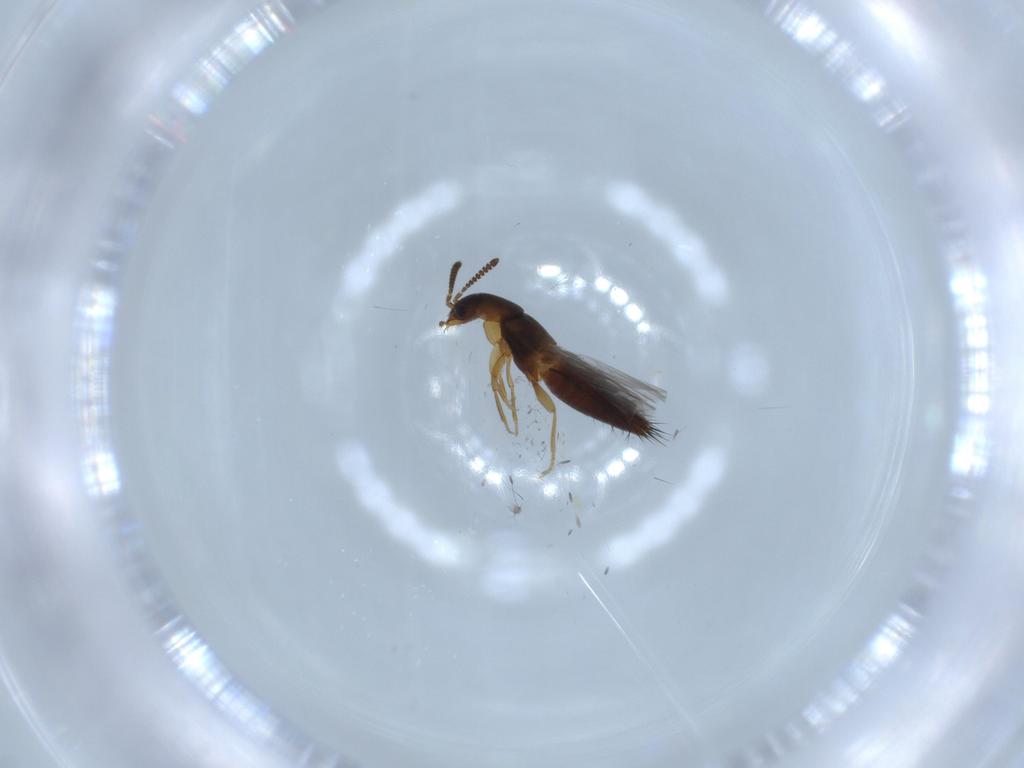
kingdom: Animalia
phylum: Arthropoda
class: Insecta
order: Coleoptera
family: Staphylinidae
